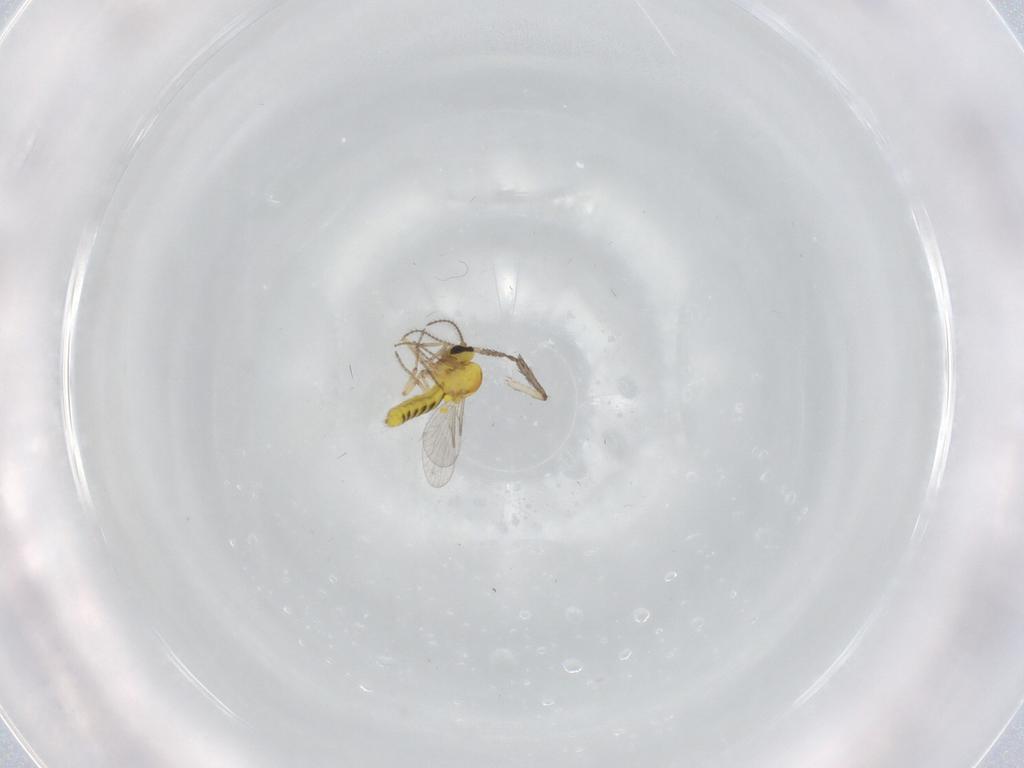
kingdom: Animalia
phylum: Arthropoda
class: Insecta
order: Diptera
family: Ceratopogonidae
